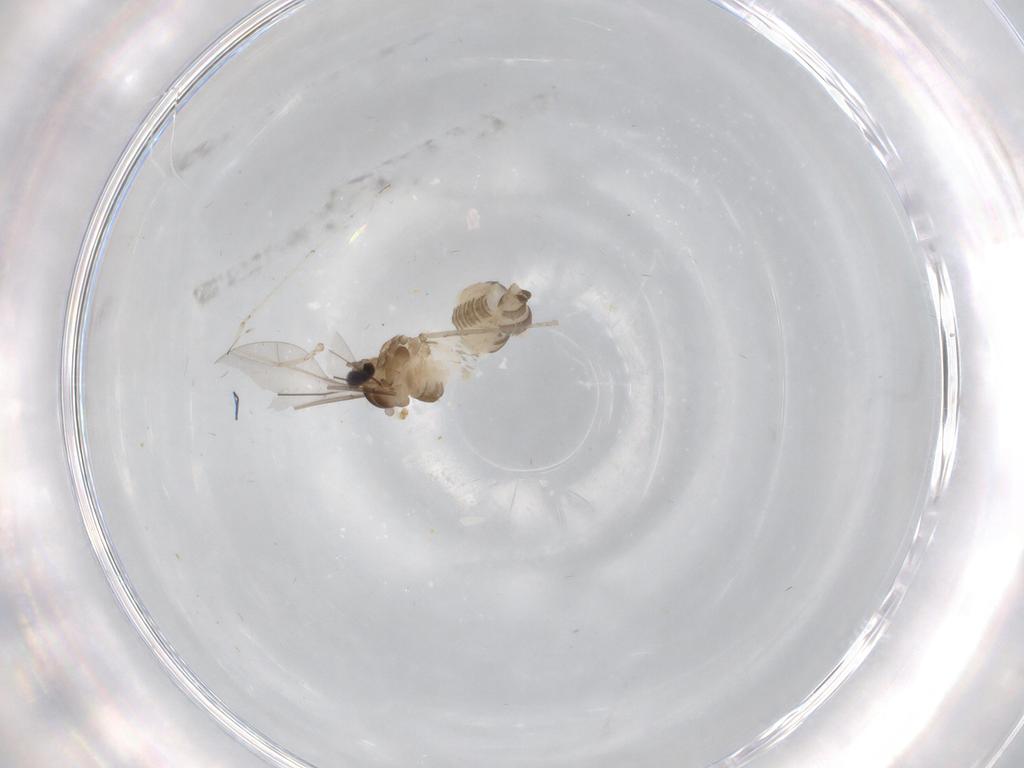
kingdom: Animalia
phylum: Arthropoda
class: Insecta
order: Diptera
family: Cecidomyiidae
